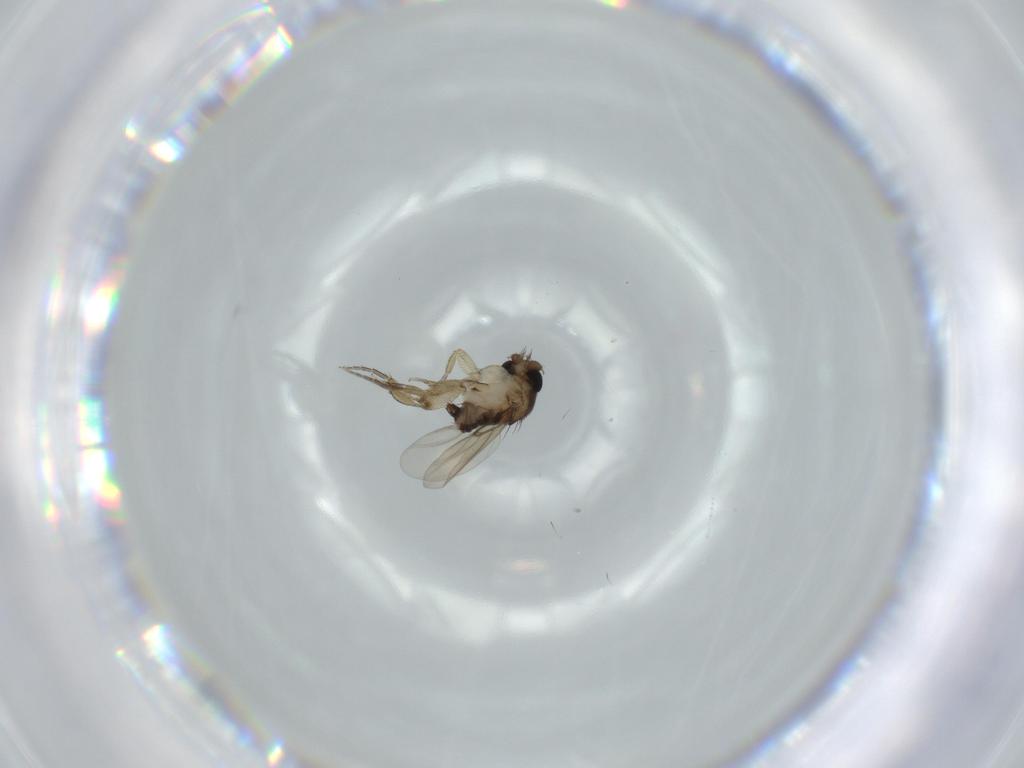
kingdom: Animalia
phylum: Arthropoda
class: Insecta
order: Diptera
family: Phoridae
